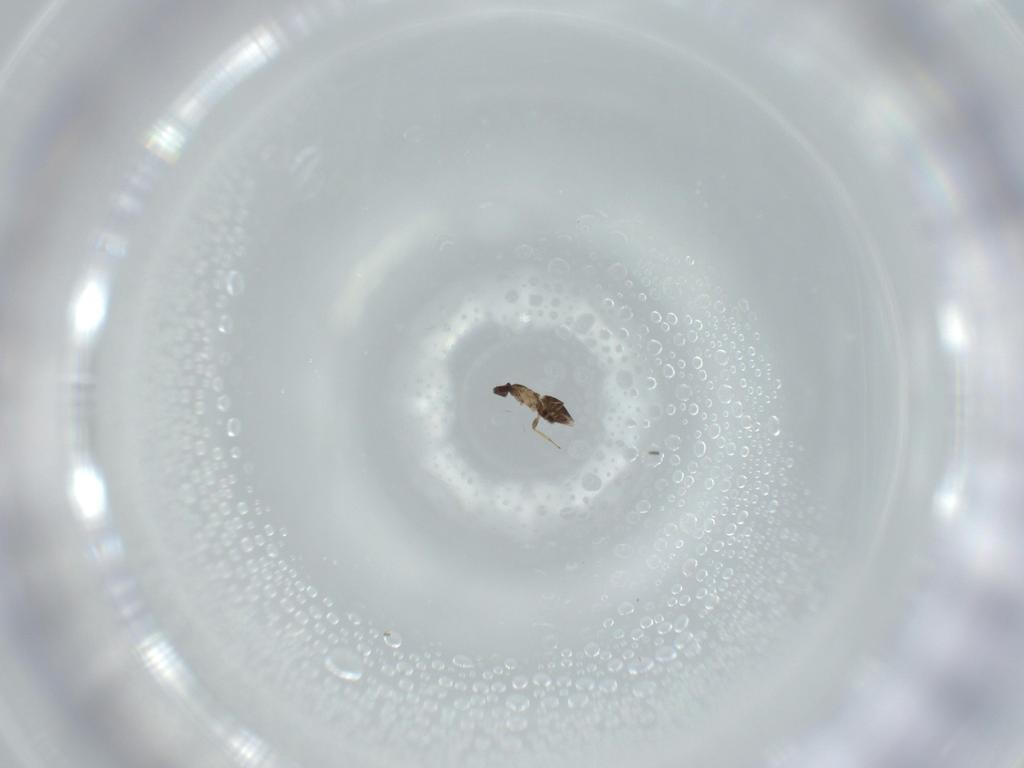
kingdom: Animalia
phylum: Arthropoda
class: Insecta
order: Hymenoptera
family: Mymaridae
